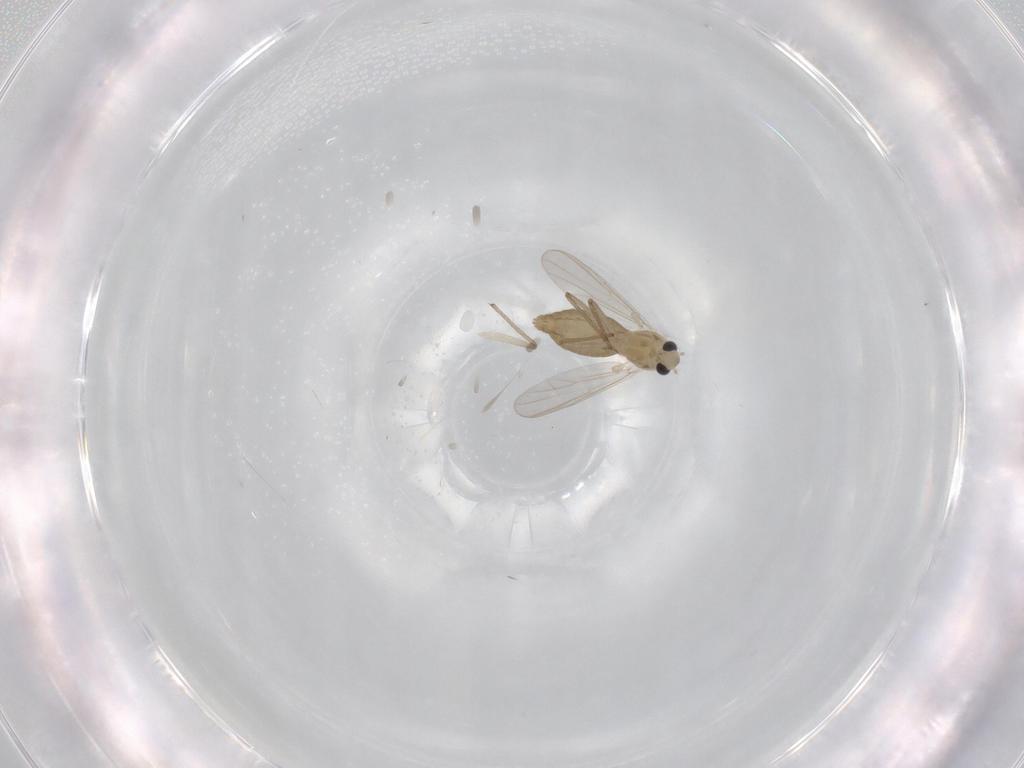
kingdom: Animalia
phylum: Arthropoda
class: Insecta
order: Diptera
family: Chironomidae
